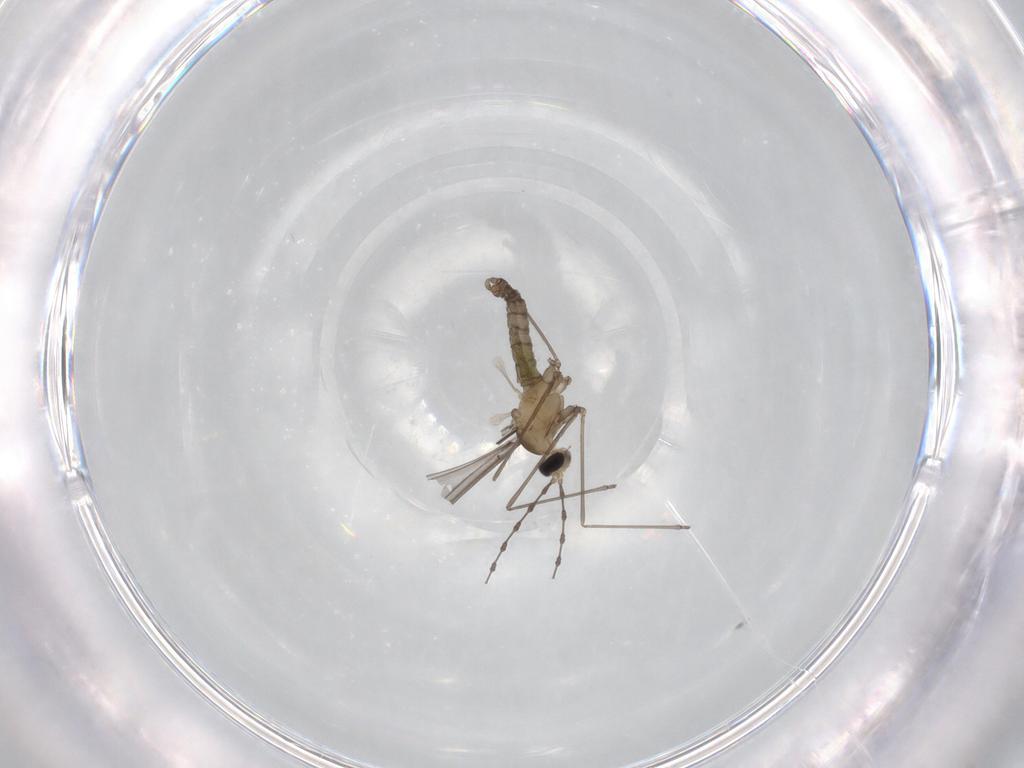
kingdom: Animalia
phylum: Arthropoda
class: Insecta
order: Diptera
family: Cecidomyiidae
